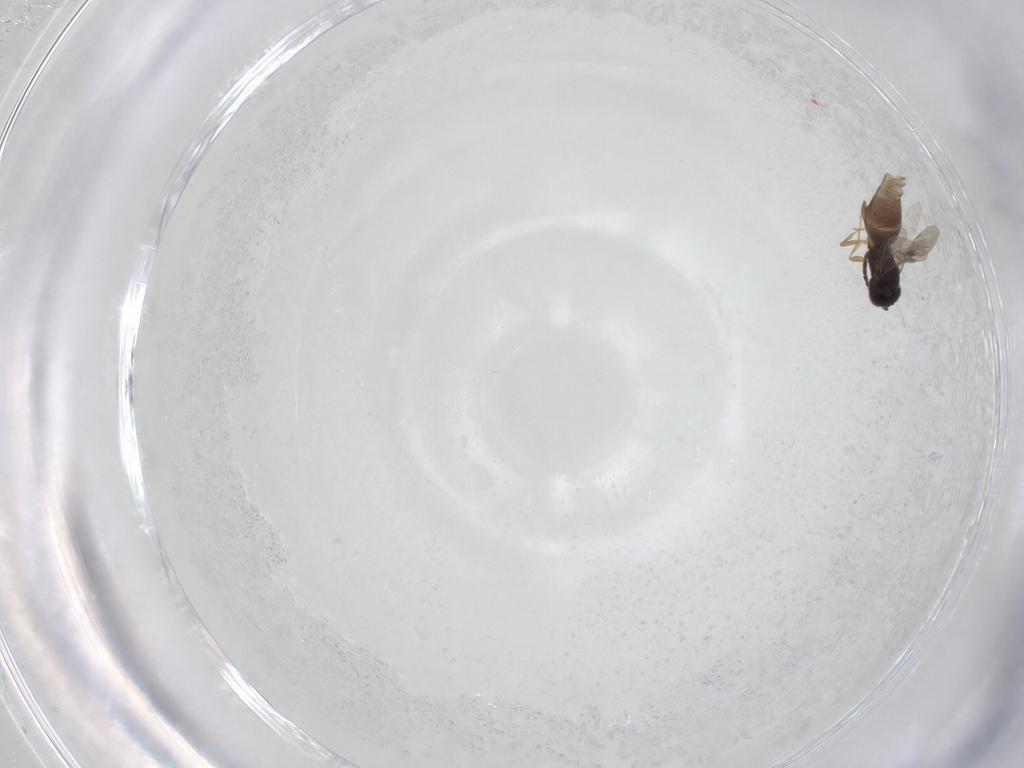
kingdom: Animalia
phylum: Arthropoda
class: Insecta
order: Hymenoptera
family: Megaspilidae
